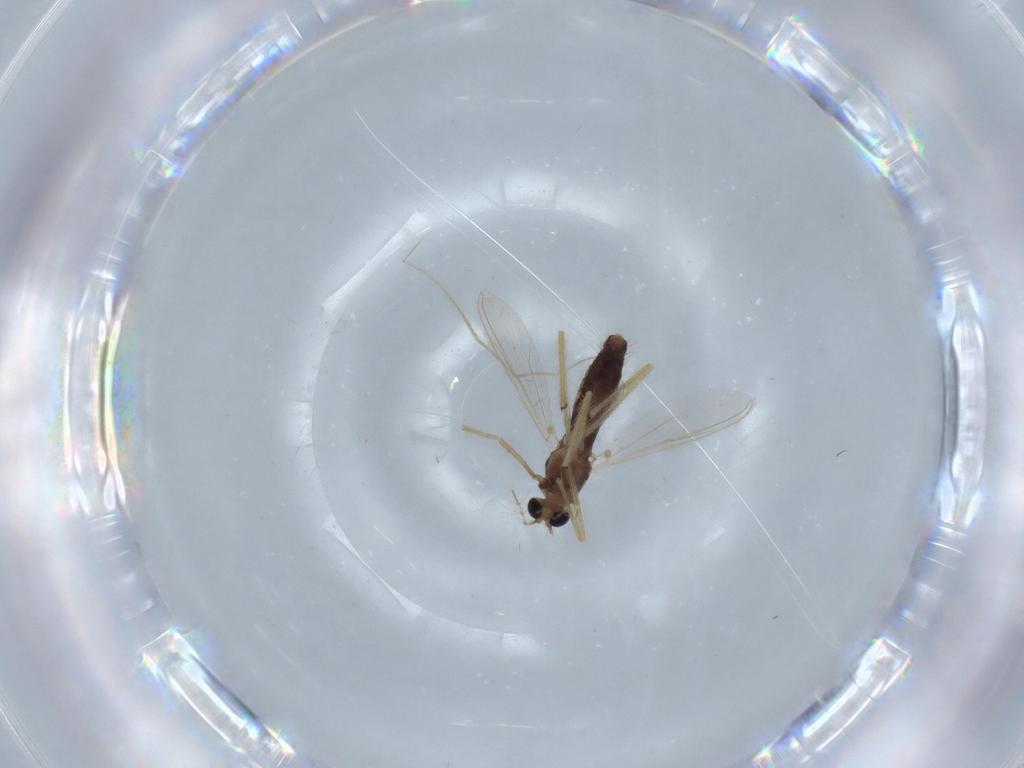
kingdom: Animalia
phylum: Arthropoda
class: Insecta
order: Diptera
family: Chironomidae
